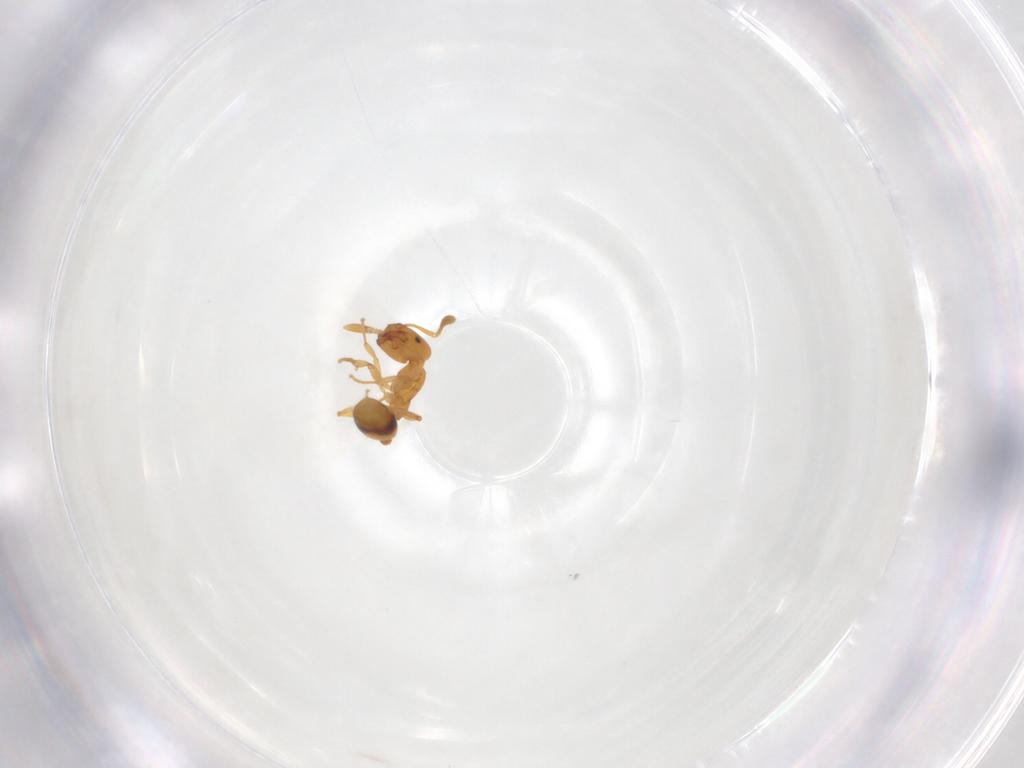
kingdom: Animalia
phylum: Arthropoda
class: Insecta
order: Hymenoptera
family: Formicidae
